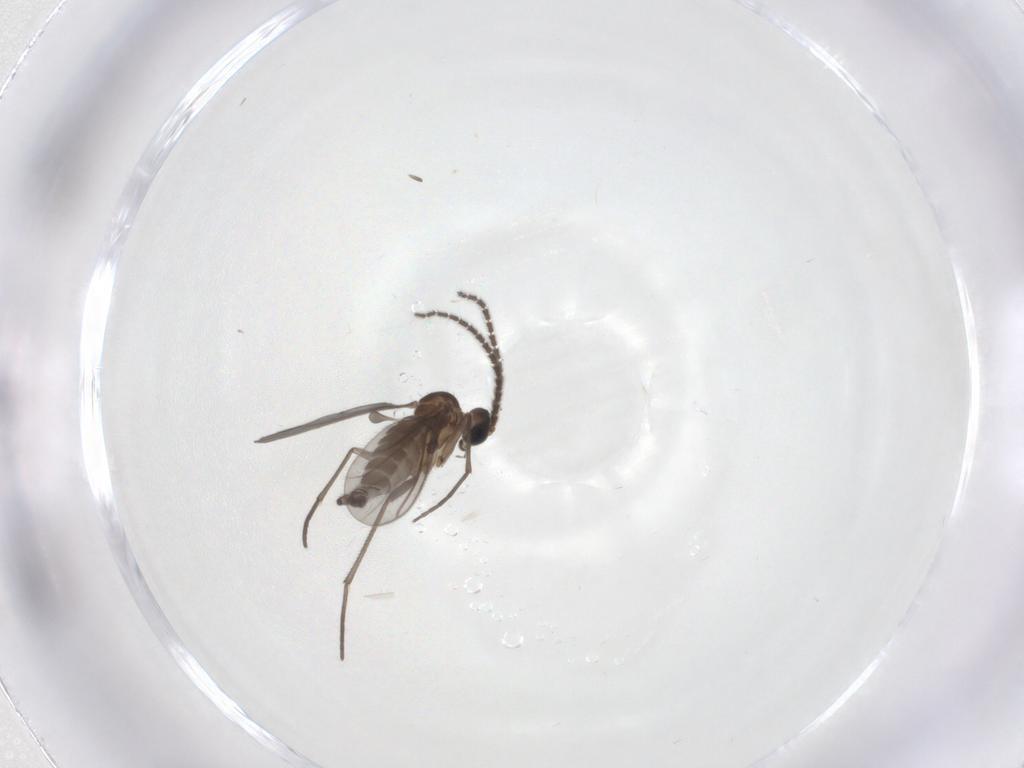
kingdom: Animalia
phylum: Arthropoda
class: Insecta
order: Diptera
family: Sciaridae
